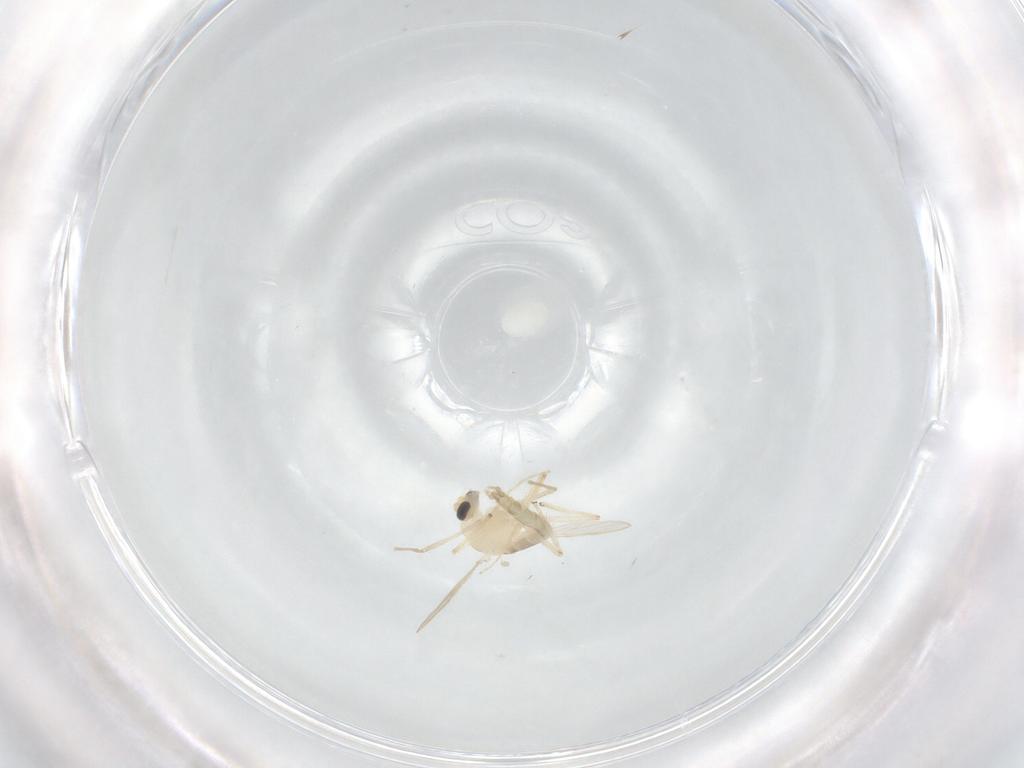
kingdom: Animalia
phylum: Arthropoda
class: Insecta
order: Diptera
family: Chironomidae
